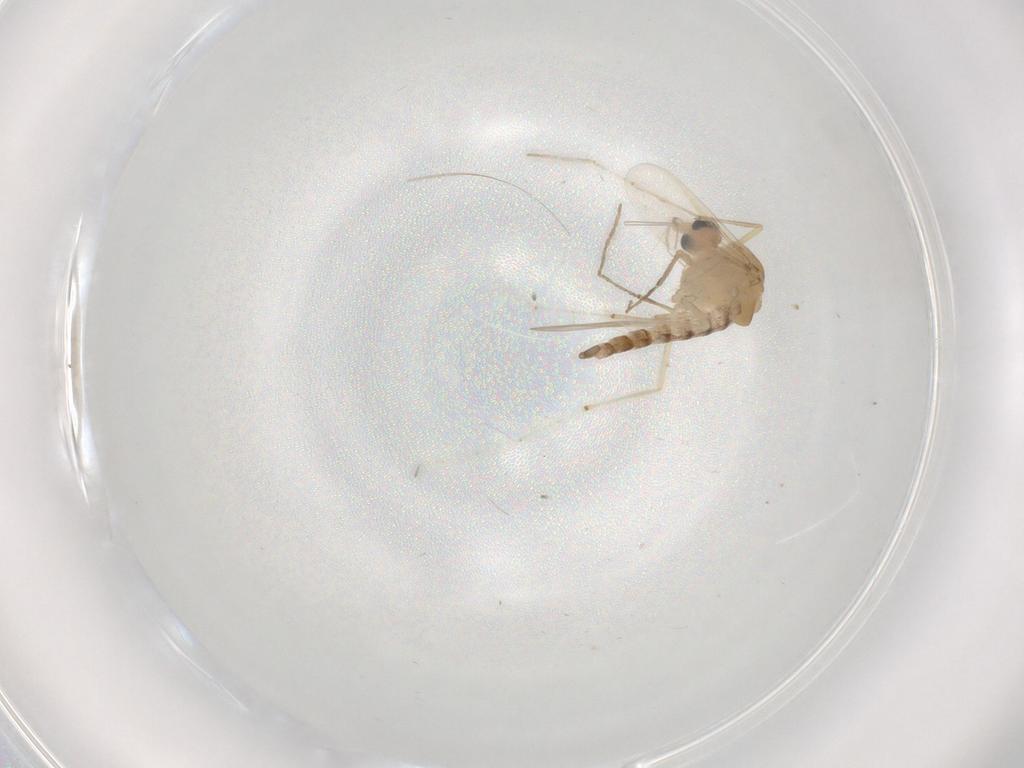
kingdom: Animalia
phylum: Arthropoda
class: Insecta
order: Diptera
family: Chironomidae
